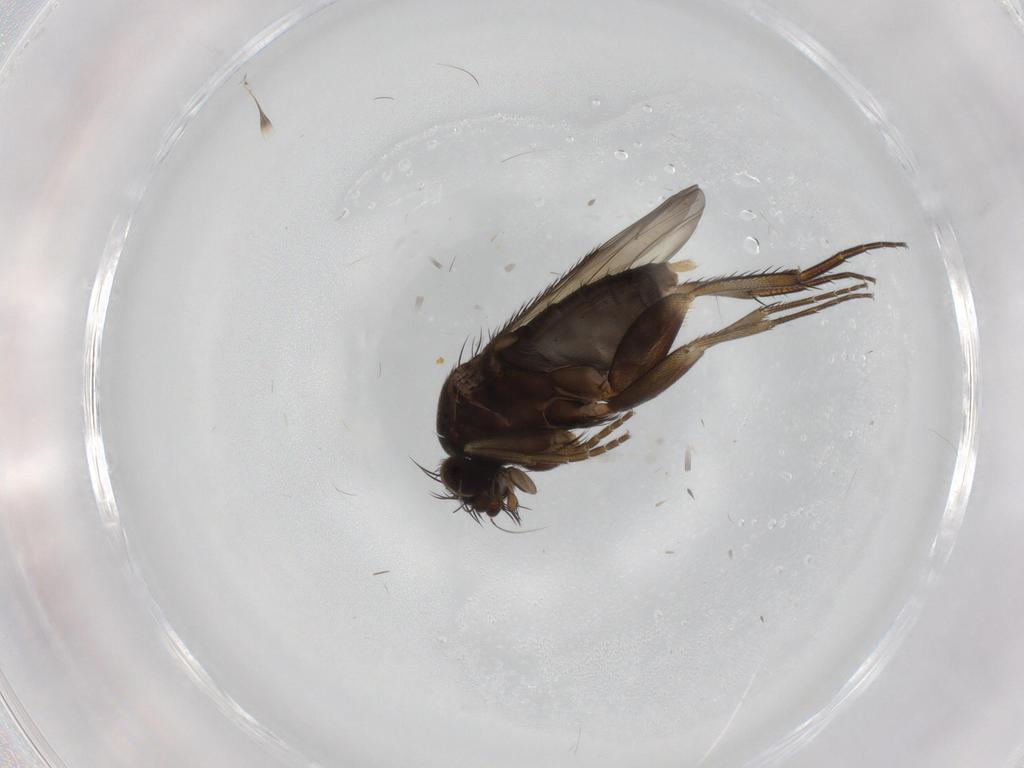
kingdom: Animalia
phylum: Arthropoda
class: Insecta
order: Diptera
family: Phoridae
